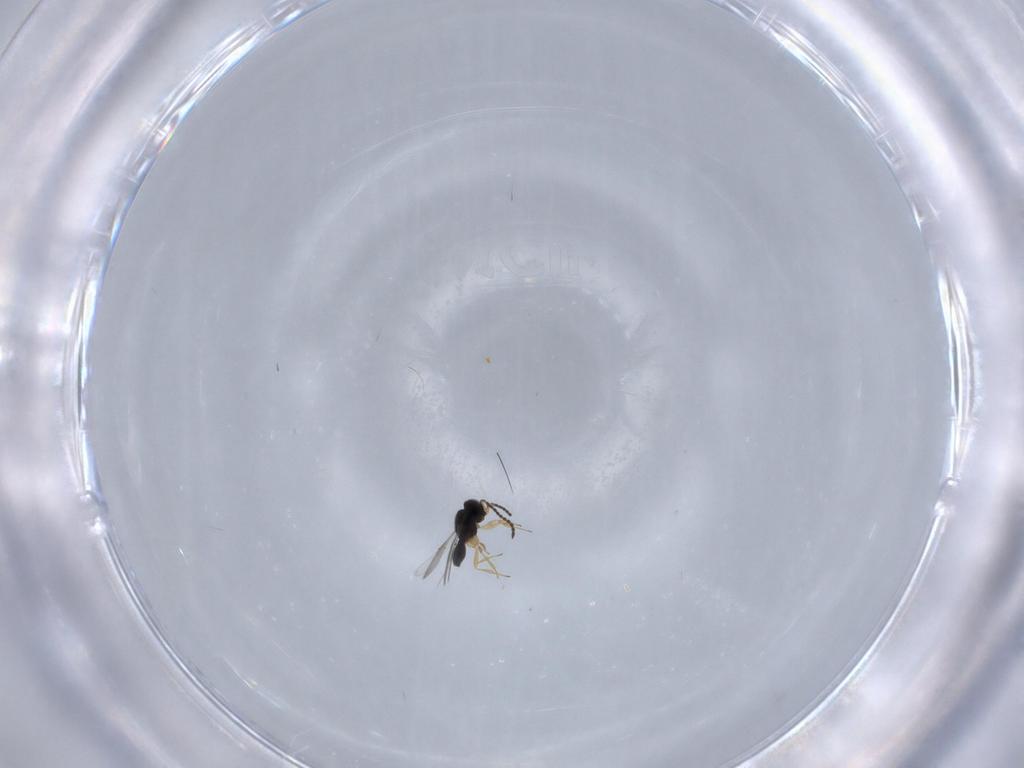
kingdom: Animalia
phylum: Arthropoda
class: Insecta
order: Hymenoptera
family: Scelionidae
